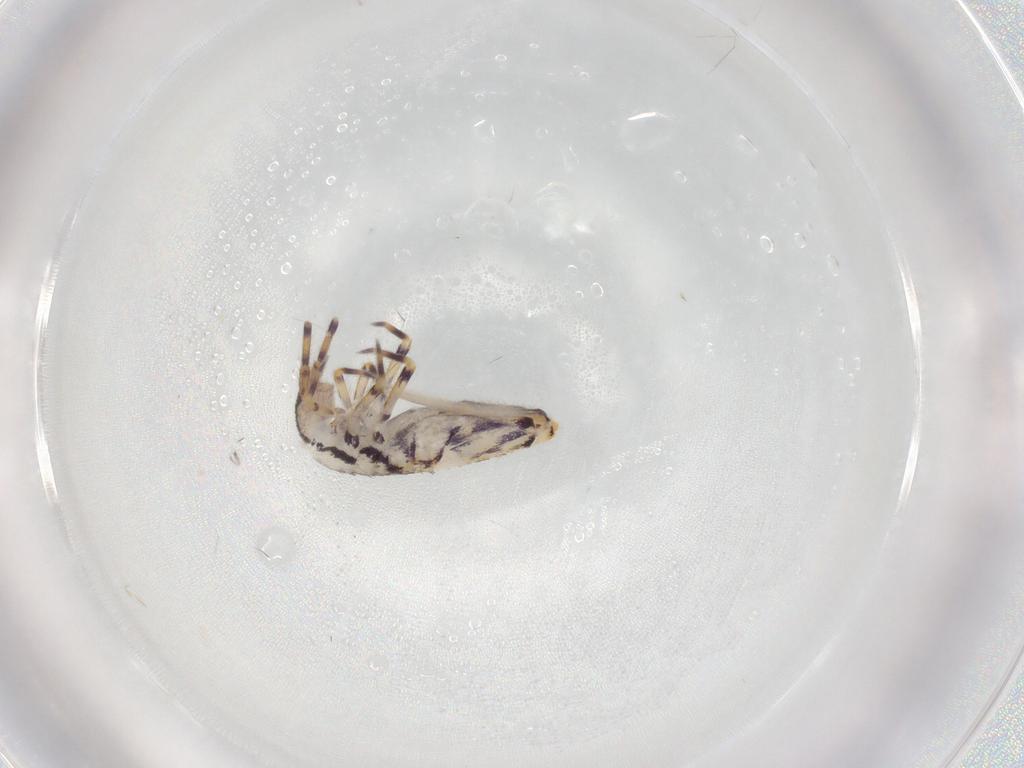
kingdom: Animalia
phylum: Arthropoda
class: Collembola
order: Entomobryomorpha
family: Entomobryidae
